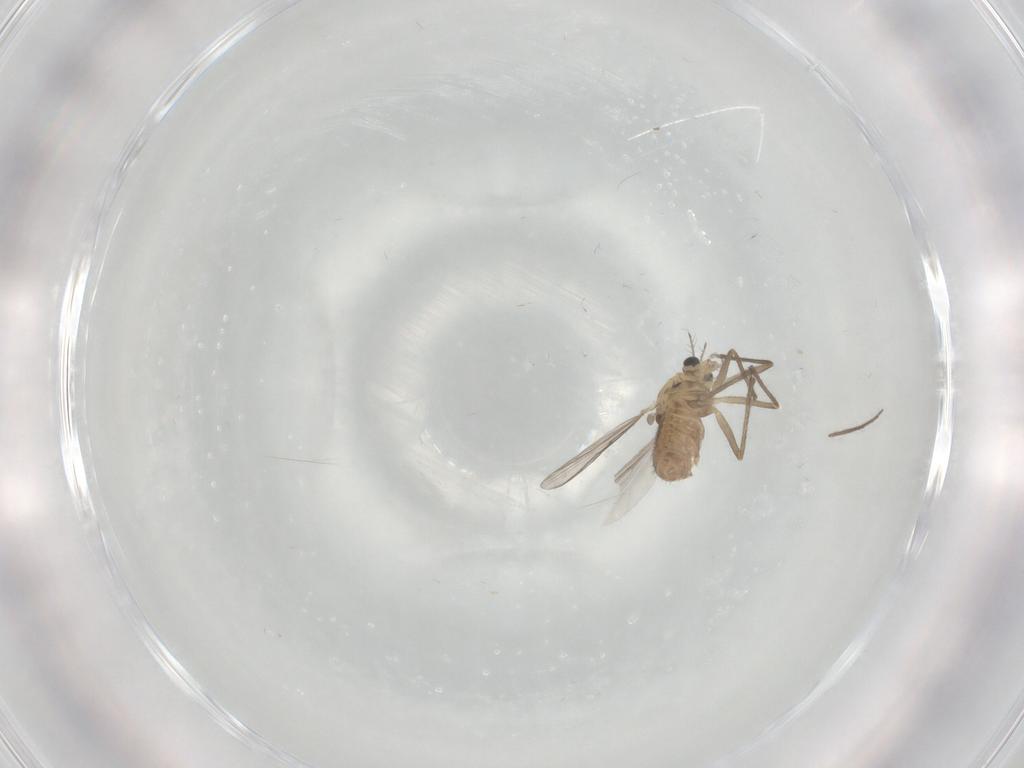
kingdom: Animalia
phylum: Arthropoda
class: Insecta
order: Diptera
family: Chironomidae
